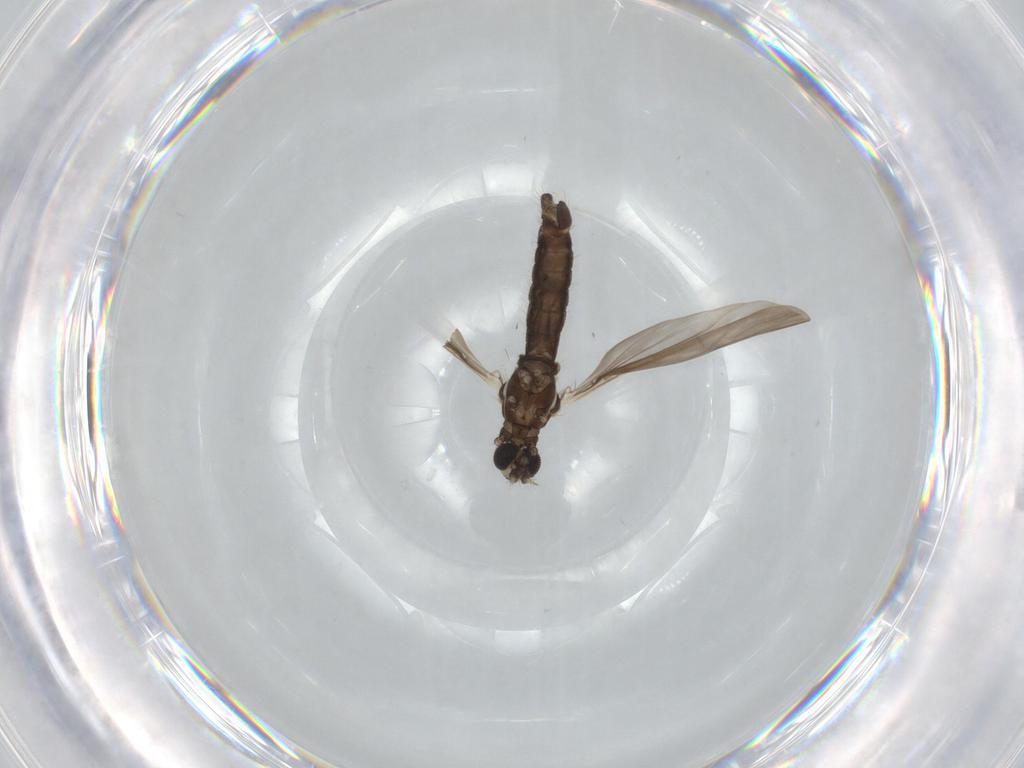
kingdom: Animalia
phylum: Arthropoda
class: Insecta
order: Diptera
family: Limoniidae
